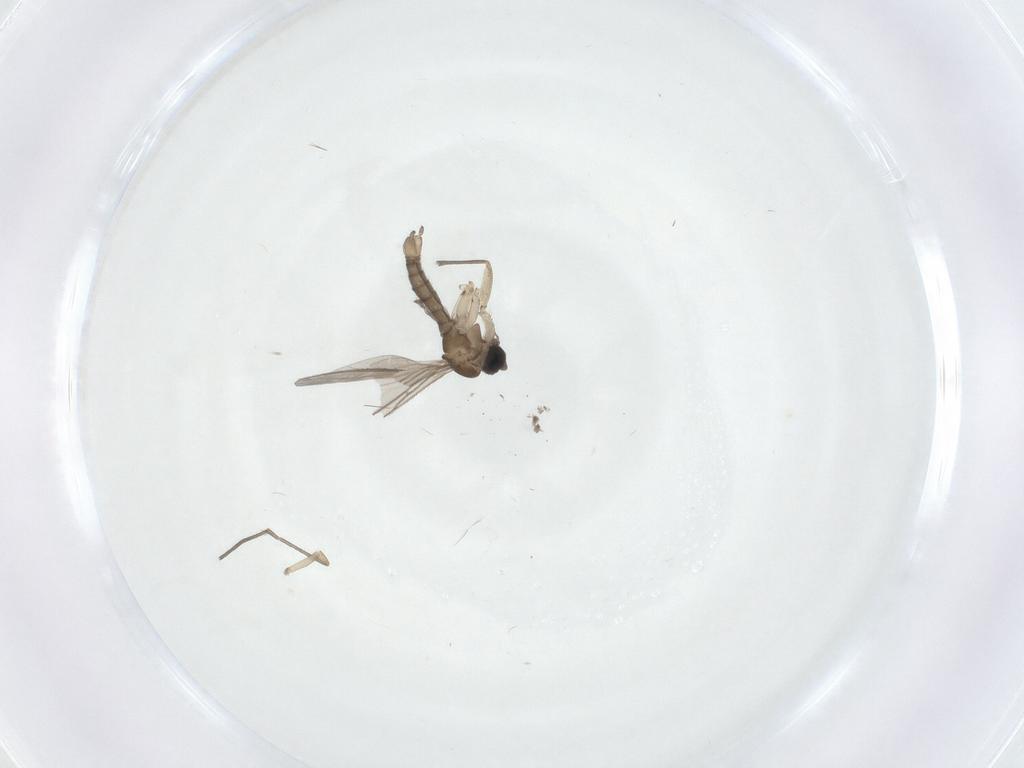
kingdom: Animalia
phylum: Arthropoda
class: Insecta
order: Diptera
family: Sciaridae
